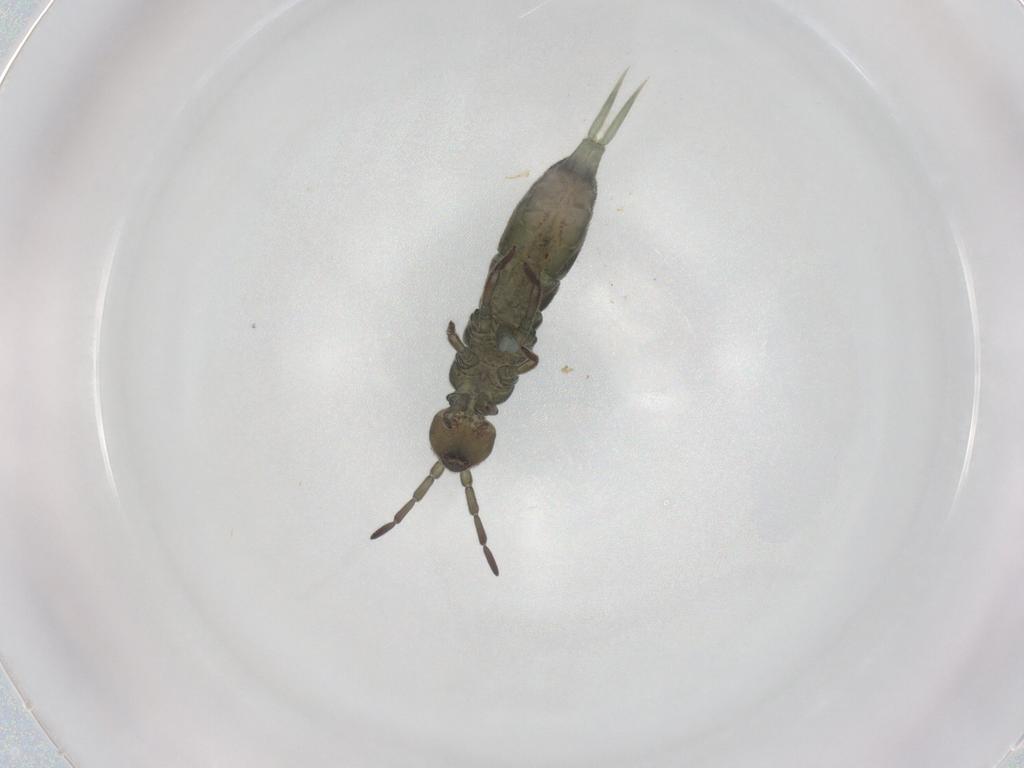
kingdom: Animalia
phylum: Arthropoda
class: Collembola
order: Entomobryomorpha
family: Isotomidae
